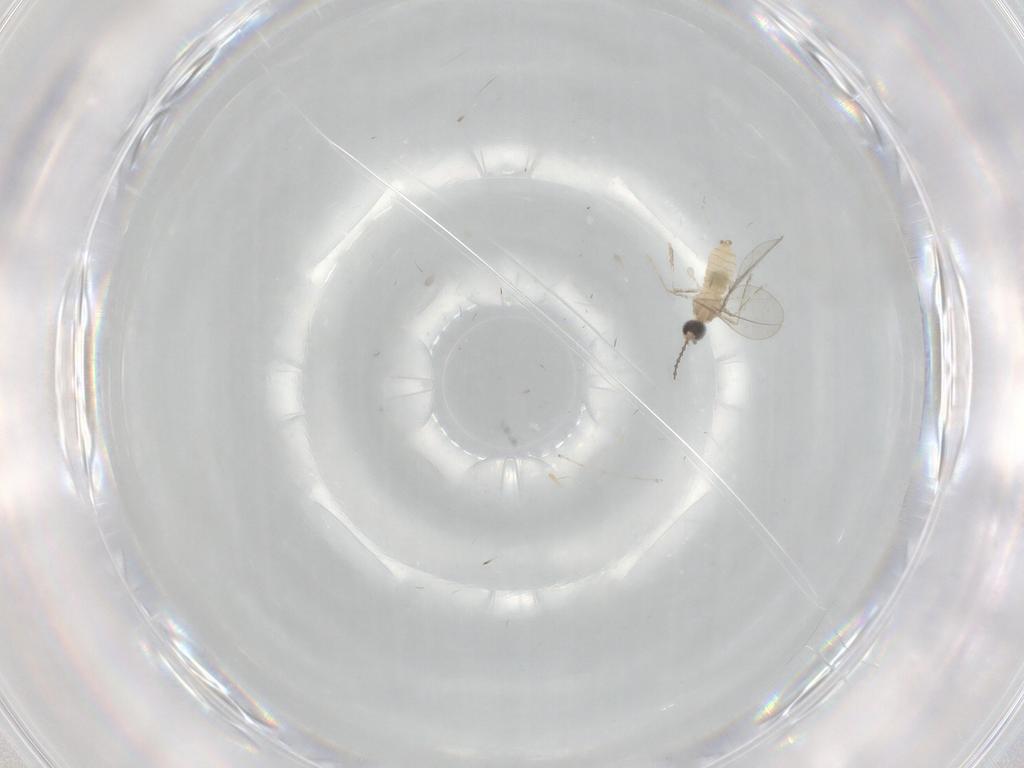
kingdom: Animalia
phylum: Arthropoda
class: Insecta
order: Diptera
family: Cecidomyiidae
